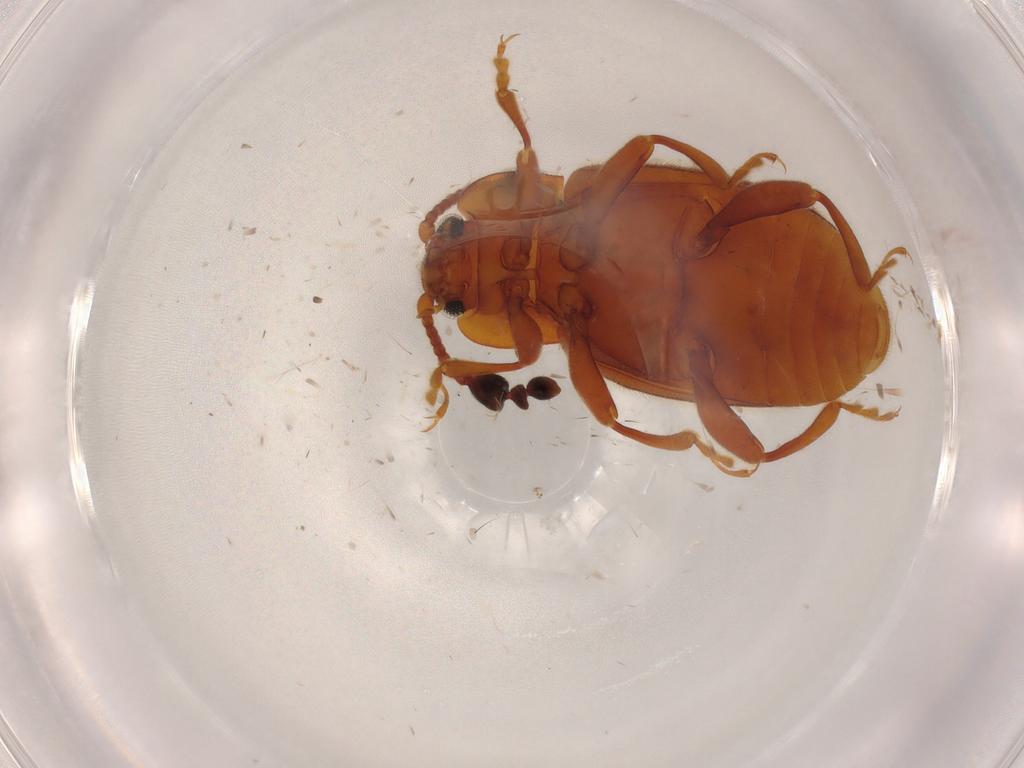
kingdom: Animalia
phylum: Arthropoda
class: Insecta
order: Coleoptera
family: Endomychidae
